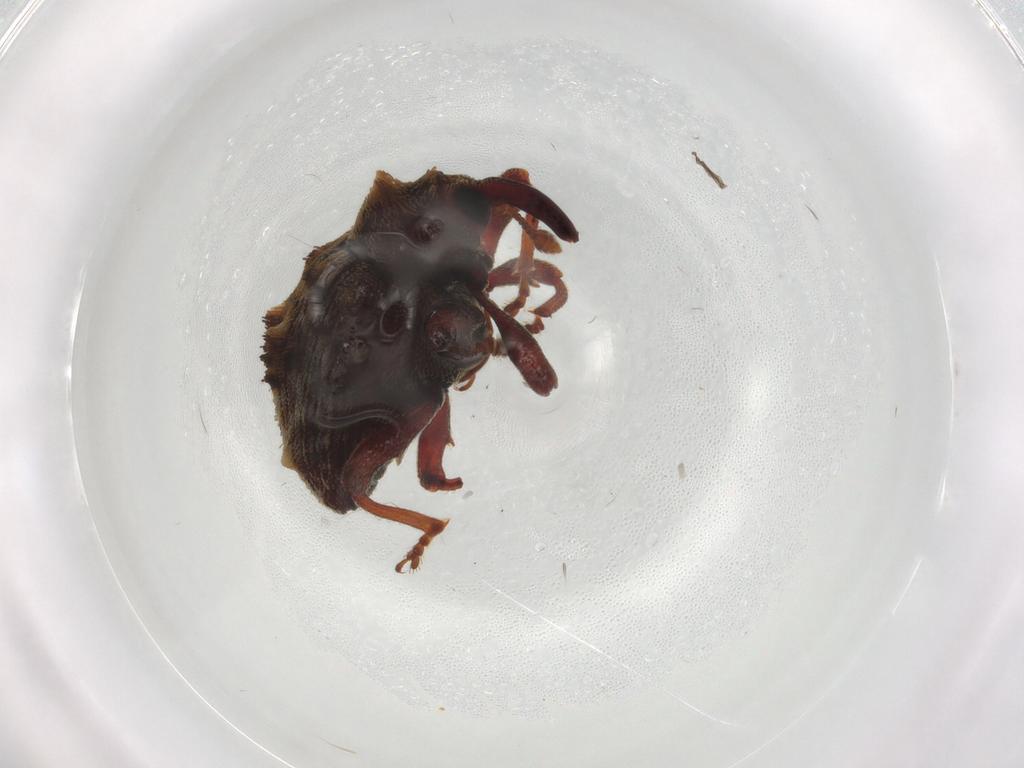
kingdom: Animalia
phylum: Arthropoda
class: Insecta
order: Coleoptera
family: Curculionidae
